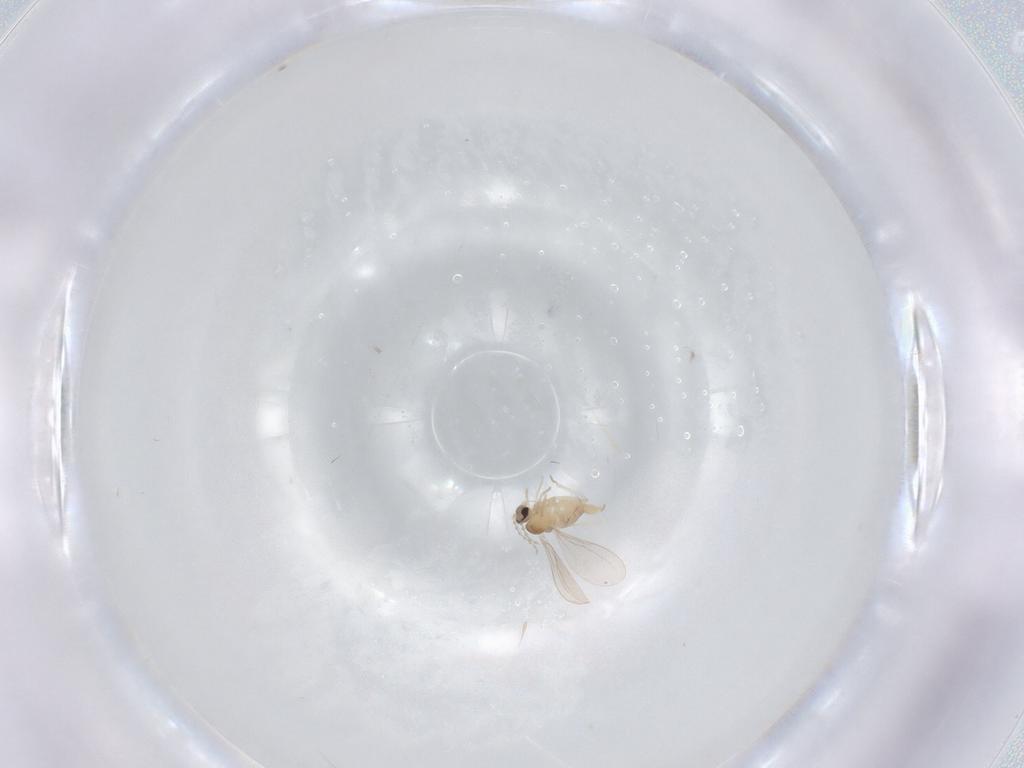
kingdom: Animalia
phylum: Arthropoda
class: Insecta
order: Diptera
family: Cecidomyiidae
